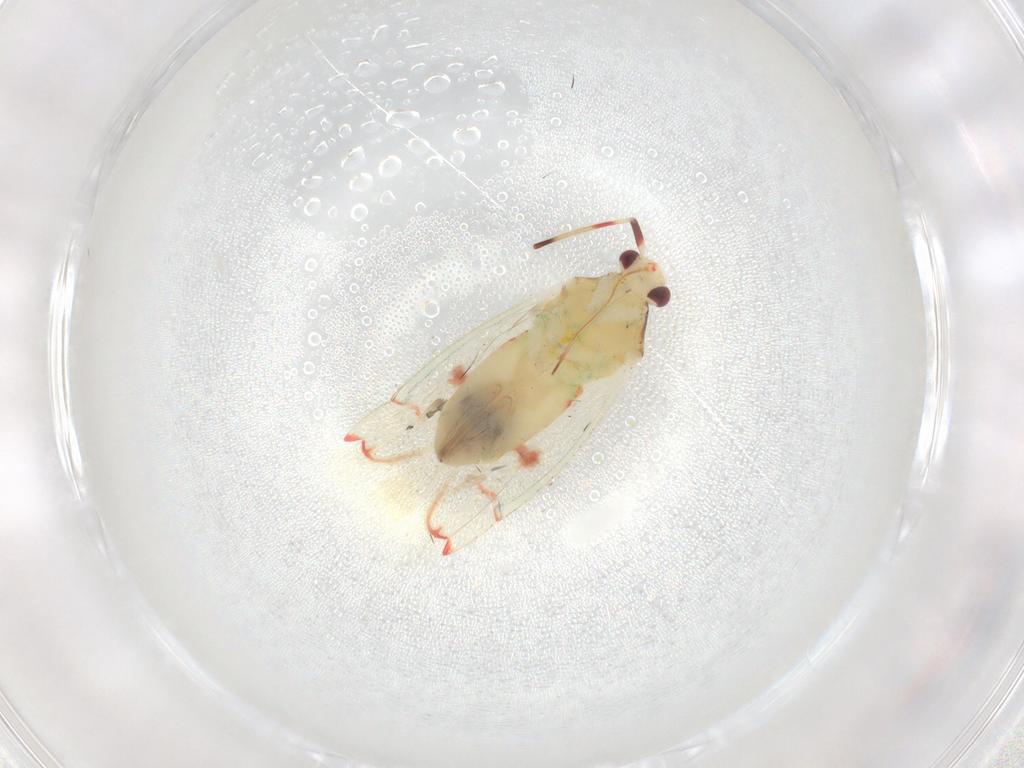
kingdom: Animalia
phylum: Arthropoda
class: Insecta
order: Hemiptera
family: Miridae
